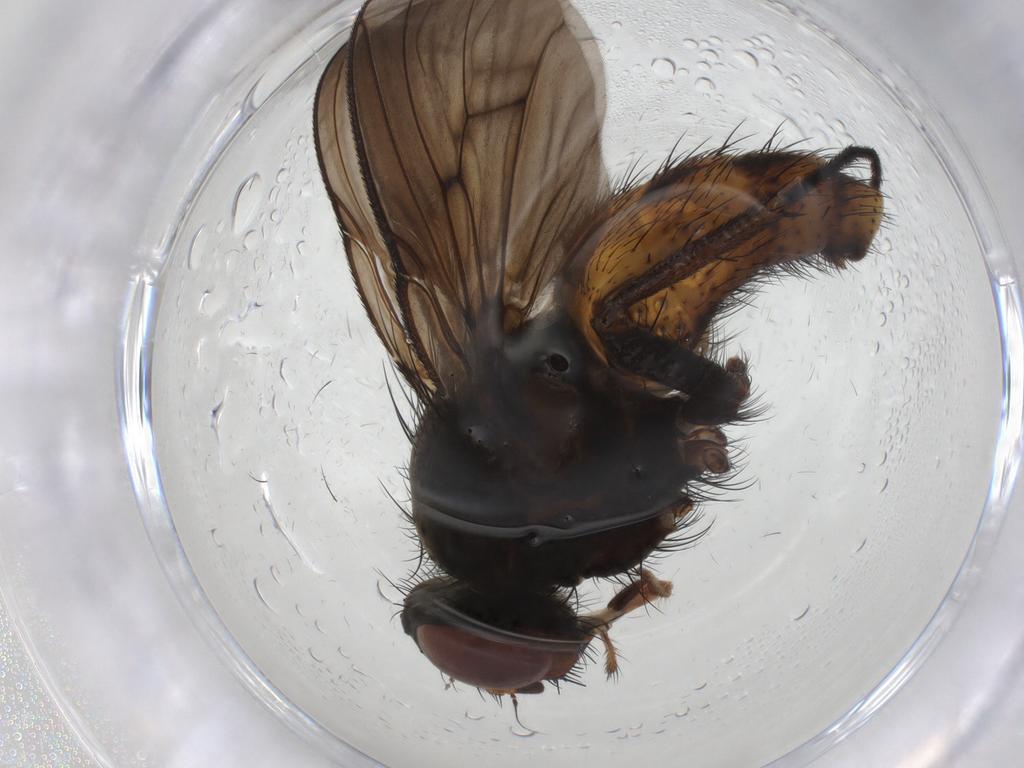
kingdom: Animalia
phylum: Arthropoda
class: Insecta
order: Diptera
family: Muscidae
